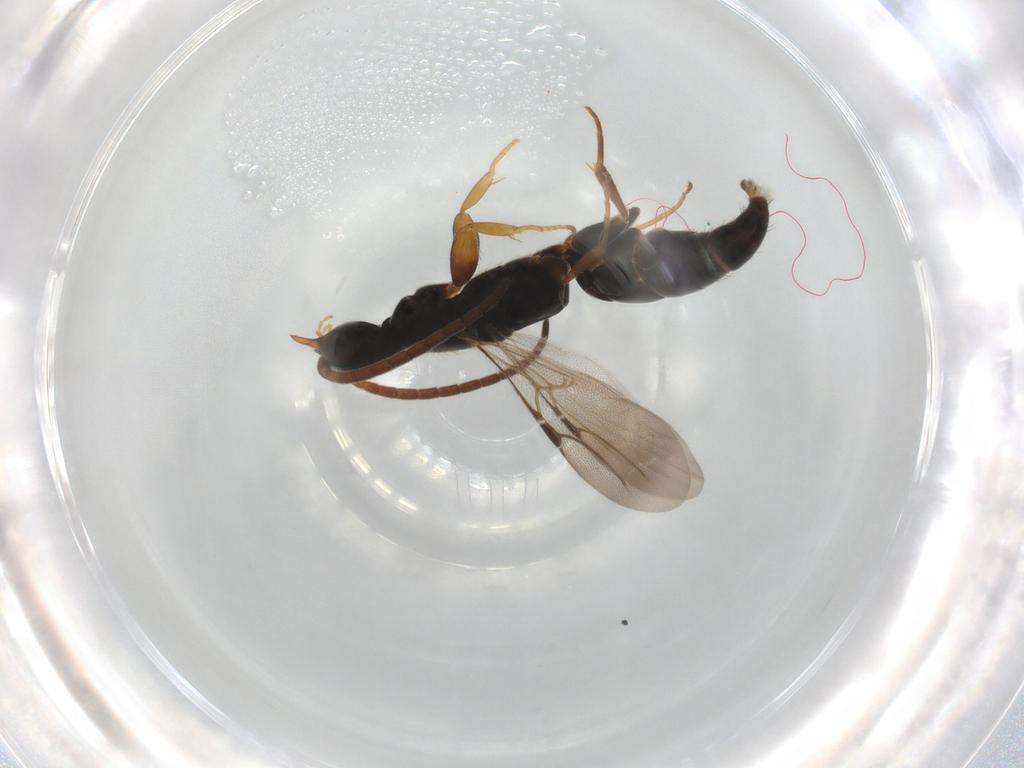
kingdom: Animalia
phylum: Arthropoda
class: Insecta
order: Hymenoptera
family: Bethylidae
